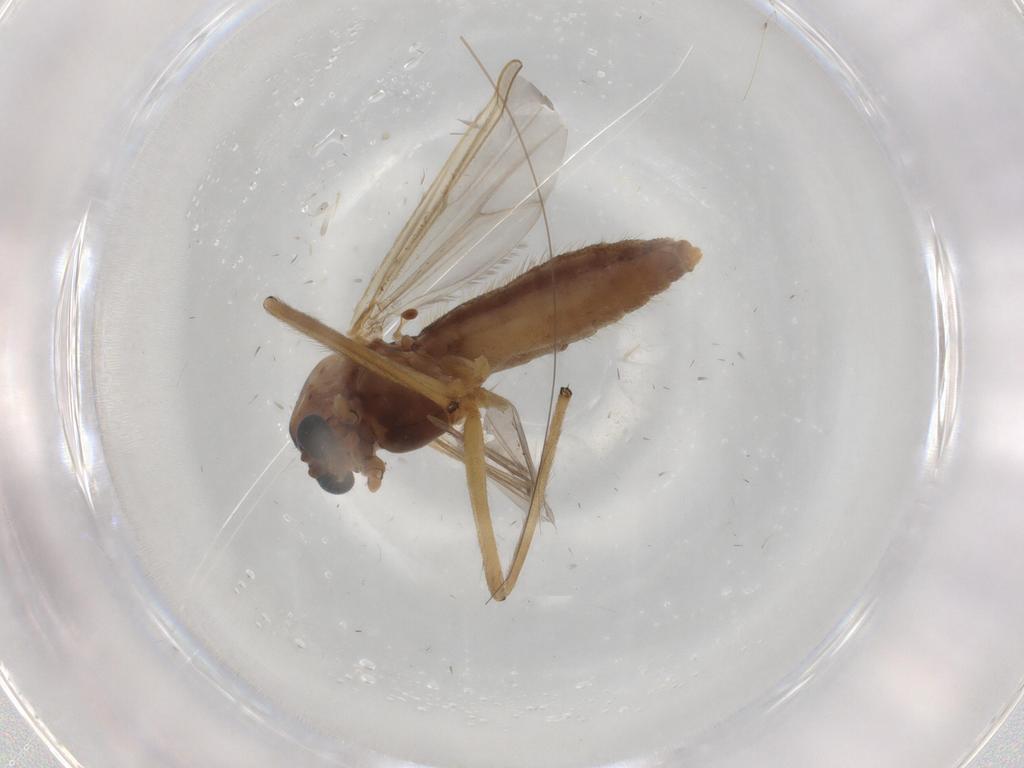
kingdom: Animalia
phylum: Arthropoda
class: Insecta
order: Diptera
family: Chironomidae
